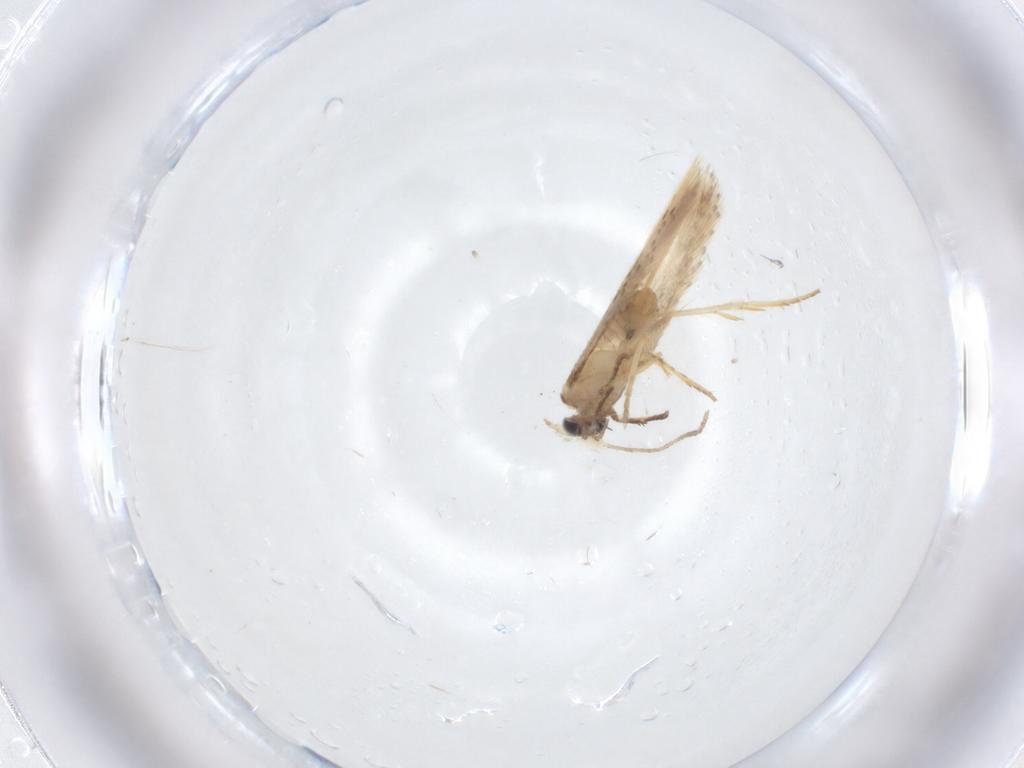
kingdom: Animalia
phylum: Arthropoda
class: Insecta
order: Lepidoptera
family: Nepticulidae
